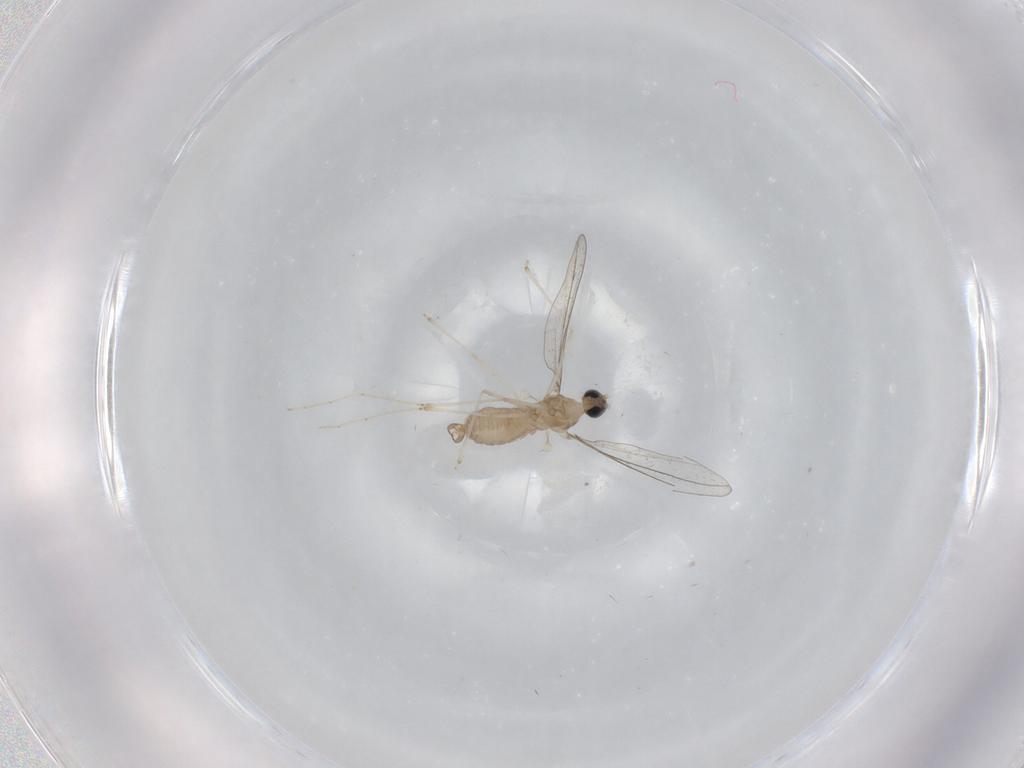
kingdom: Animalia
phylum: Arthropoda
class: Insecta
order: Diptera
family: Cecidomyiidae
